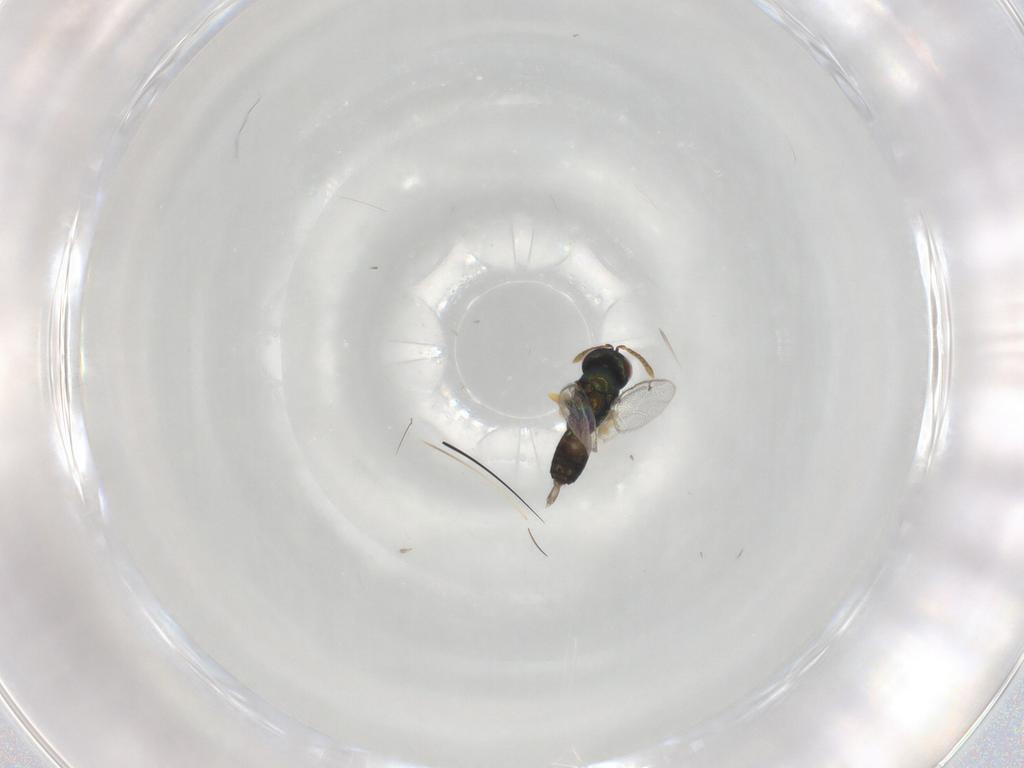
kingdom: Animalia
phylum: Arthropoda
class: Insecta
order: Hymenoptera
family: Pteromalidae
